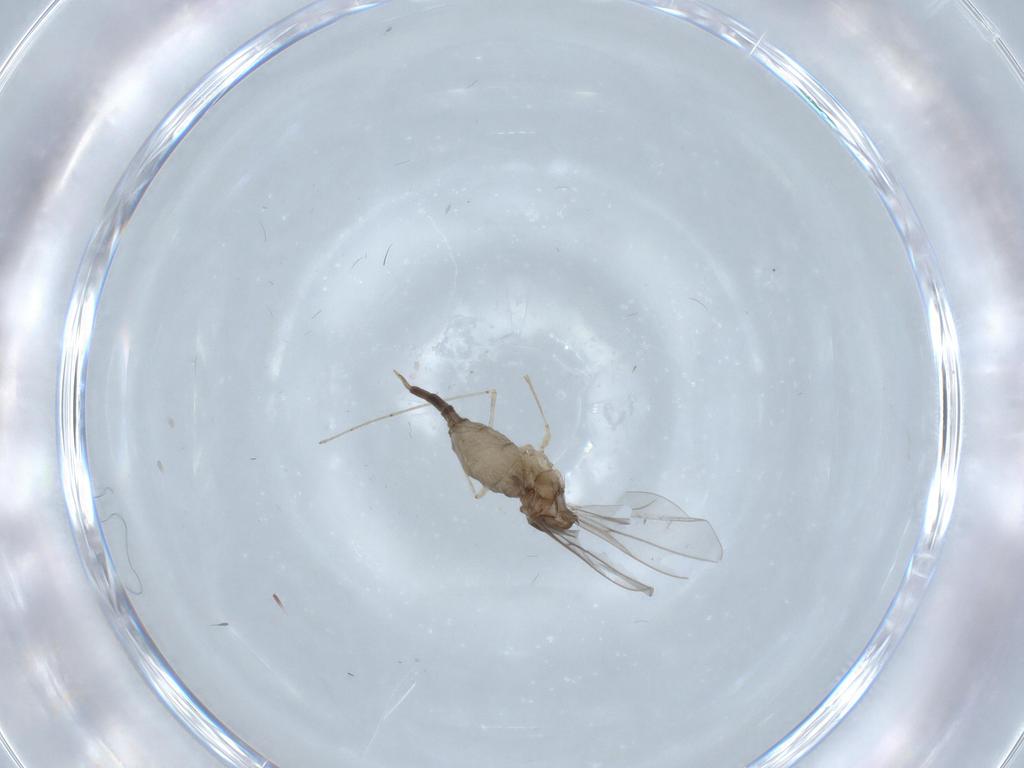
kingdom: Animalia
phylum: Arthropoda
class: Insecta
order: Diptera
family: Cecidomyiidae
